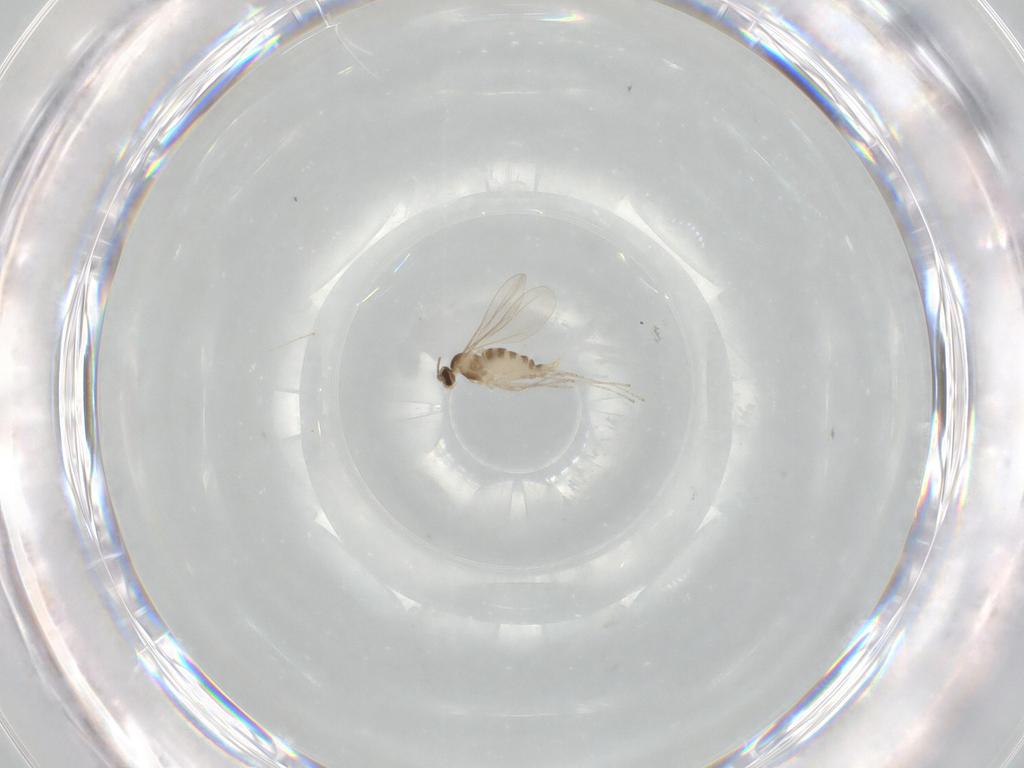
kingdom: Animalia
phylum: Arthropoda
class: Insecta
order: Diptera
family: Cecidomyiidae
